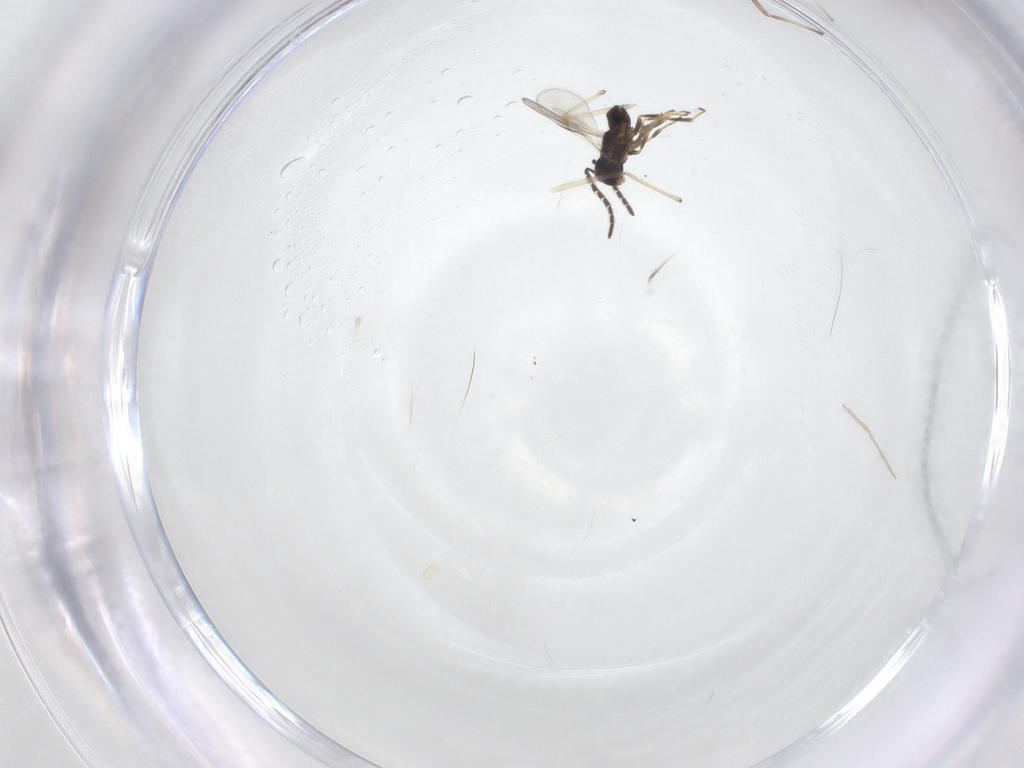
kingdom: Animalia
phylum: Arthropoda
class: Insecta
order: Hymenoptera
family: Encyrtidae
